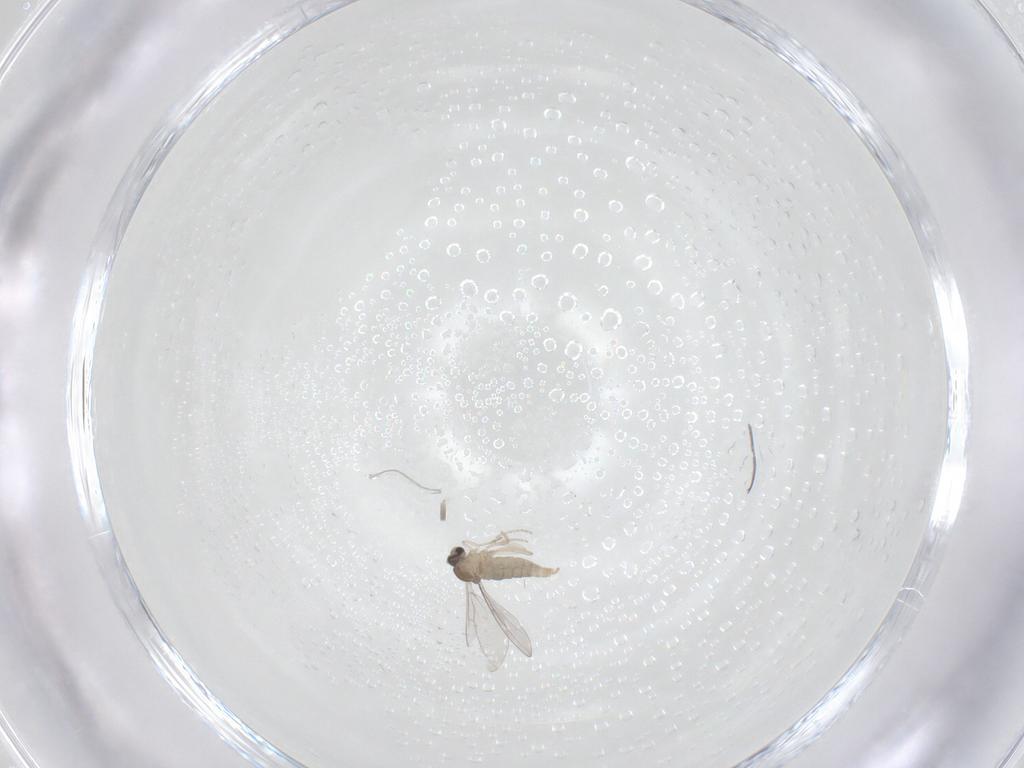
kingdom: Animalia
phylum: Arthropoda
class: Insecta
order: Diptera
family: Cecidomyiidae
